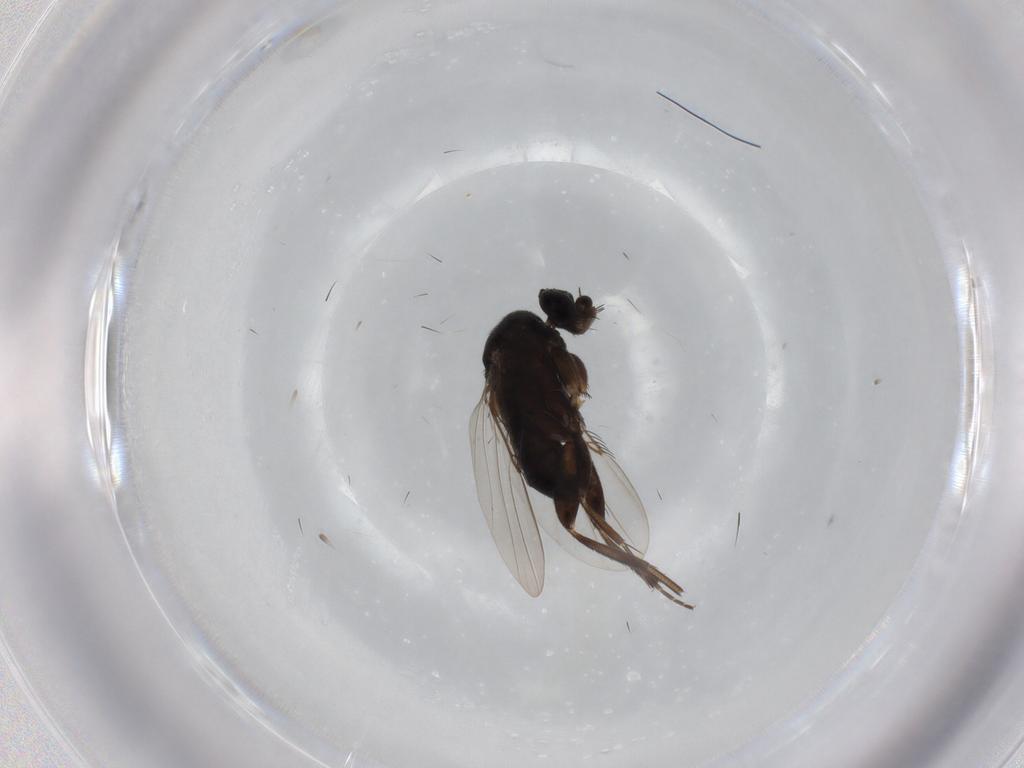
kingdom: Animalia
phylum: Arthropoda
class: Insecta
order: Diptera
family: Phoridae
